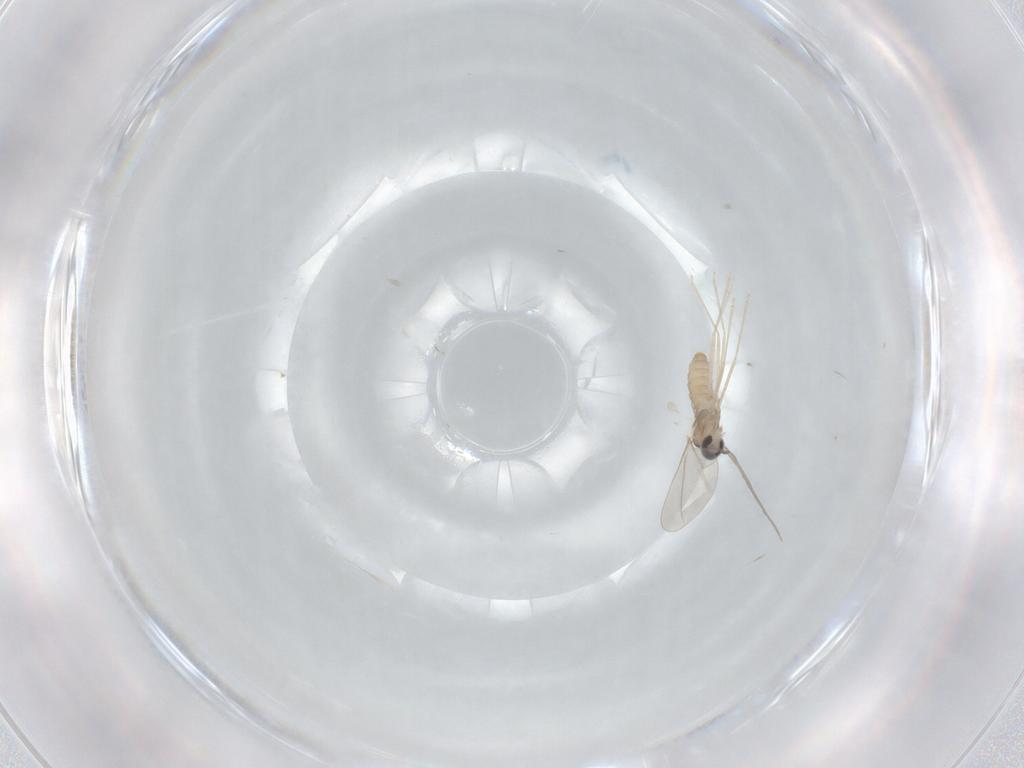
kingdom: Animalia
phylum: Arthropoda
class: Insecta
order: Diptera
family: Cecidomyiidae
